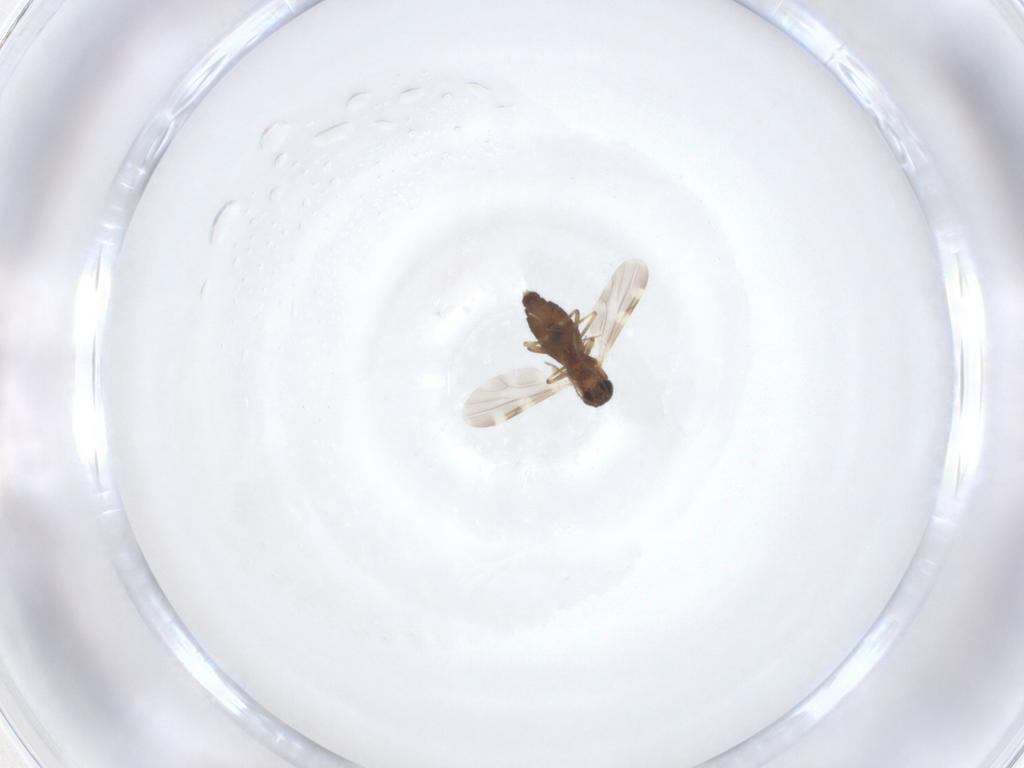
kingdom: Animalia
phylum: Arthropoda
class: Insecta
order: Diptera
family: Ceratopogonidae
